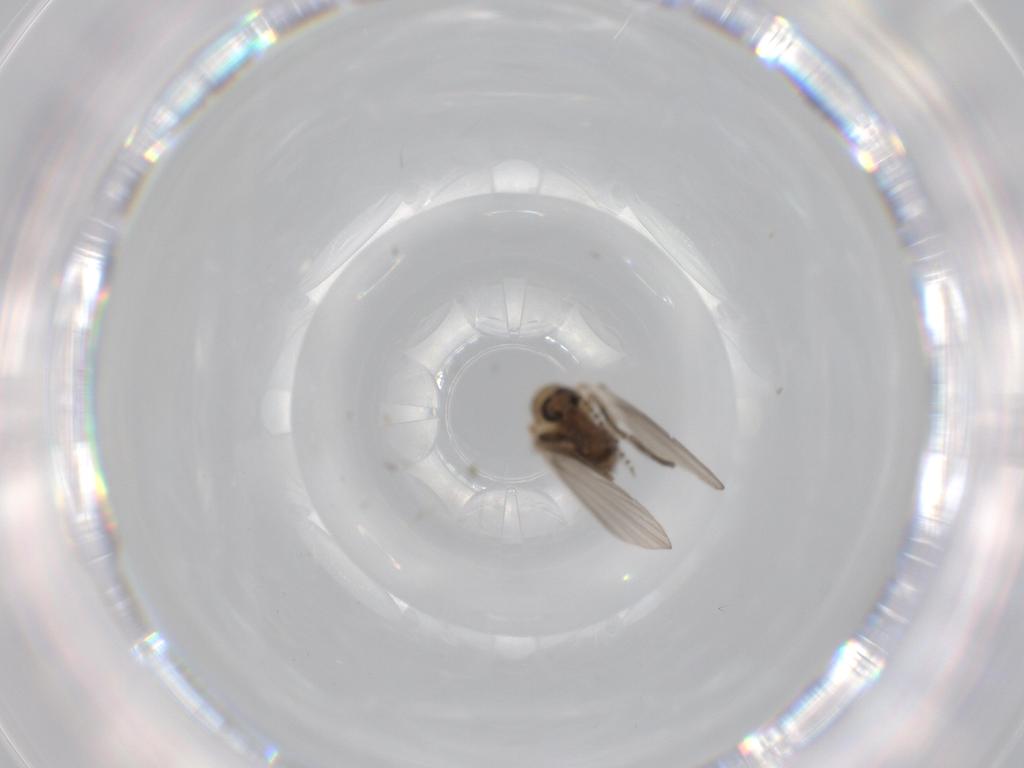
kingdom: Animalia
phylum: Arthropoda
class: Insecta
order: Diptera
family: Psychodidae
